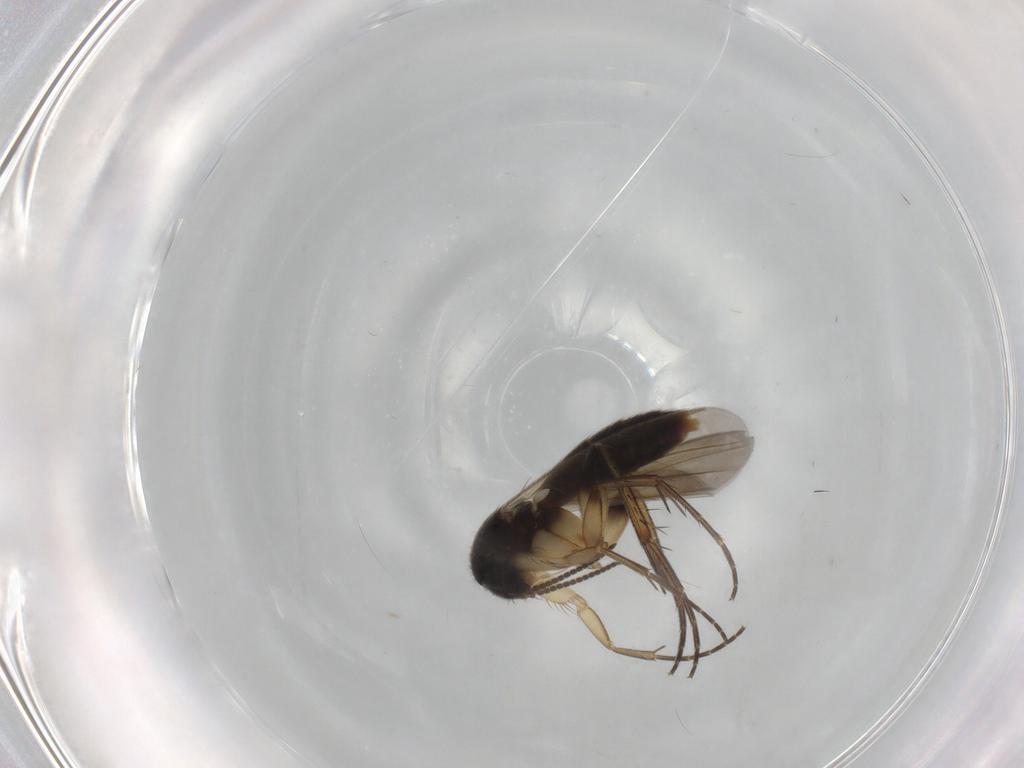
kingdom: Animalia
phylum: Arthropoda
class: Insecta
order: Diptera
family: Mycetophilidae
